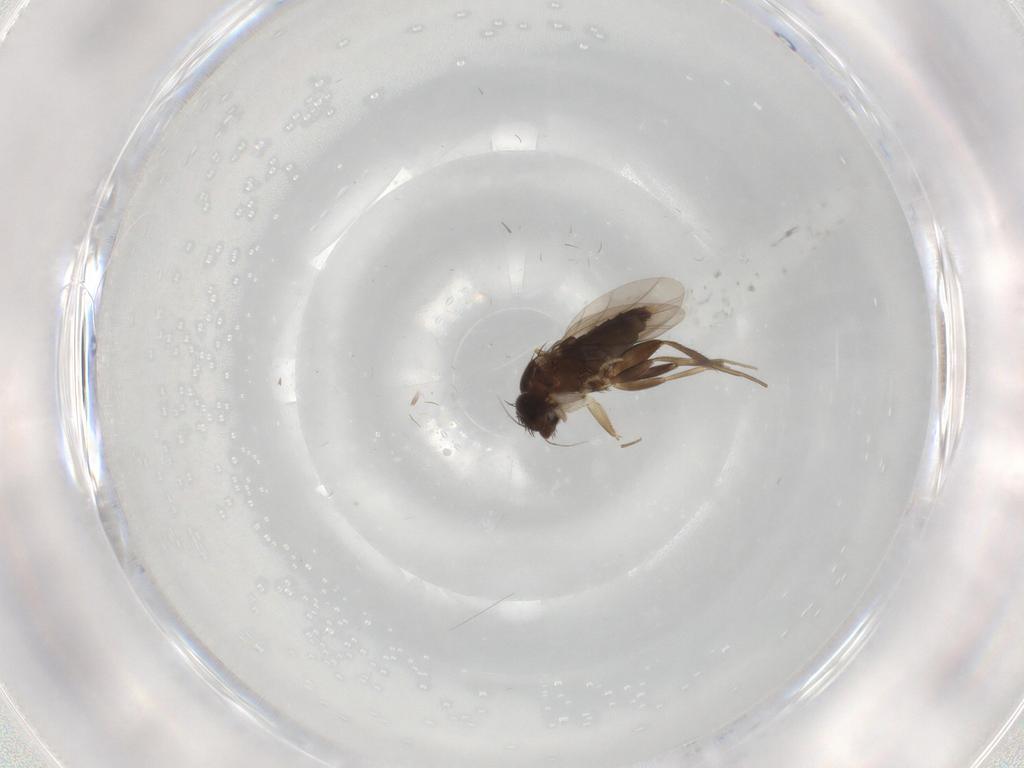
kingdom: Animalia
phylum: Arthropoda
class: Insecta
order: Diptera
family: Phoridae
